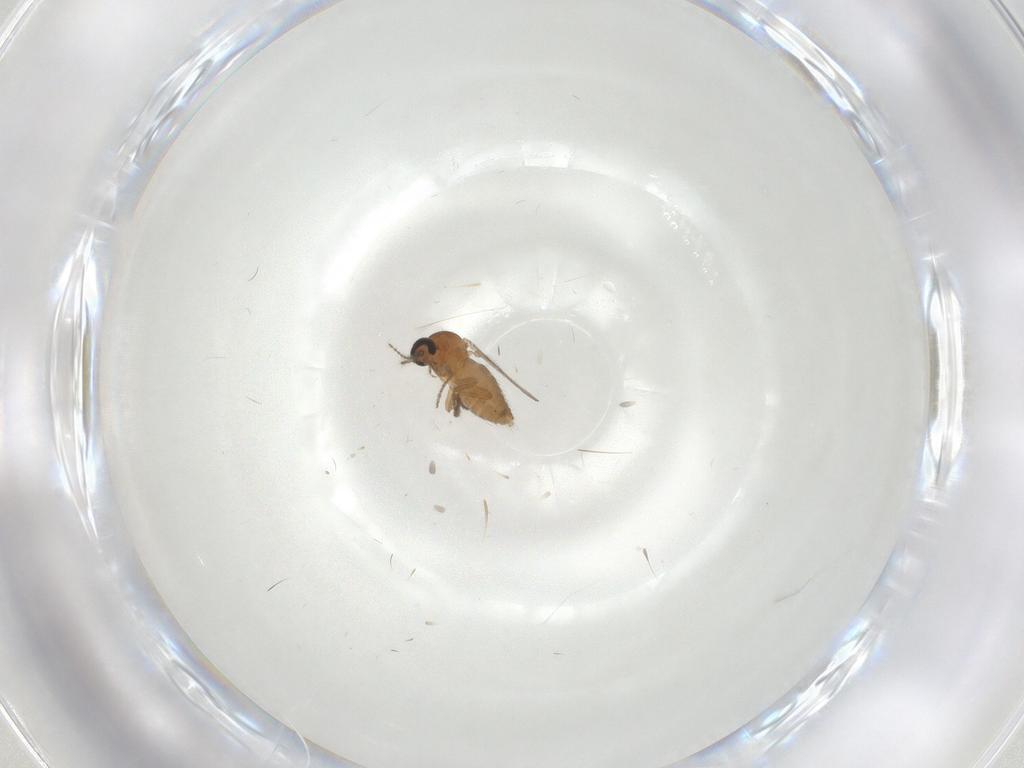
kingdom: Animalia
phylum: Arthropoda
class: Insecta
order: Diptera
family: Ceratopogonidae
